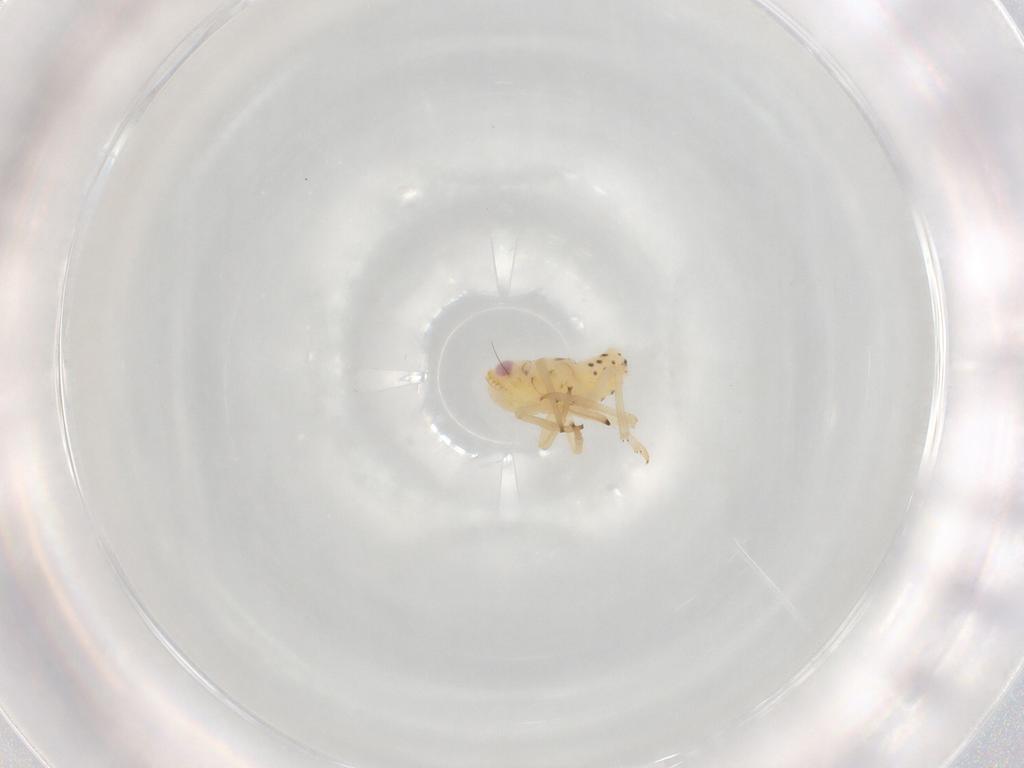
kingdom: Animalia
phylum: Arthropoda
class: Insecta
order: Hemiptera
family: Tropiduchidae
